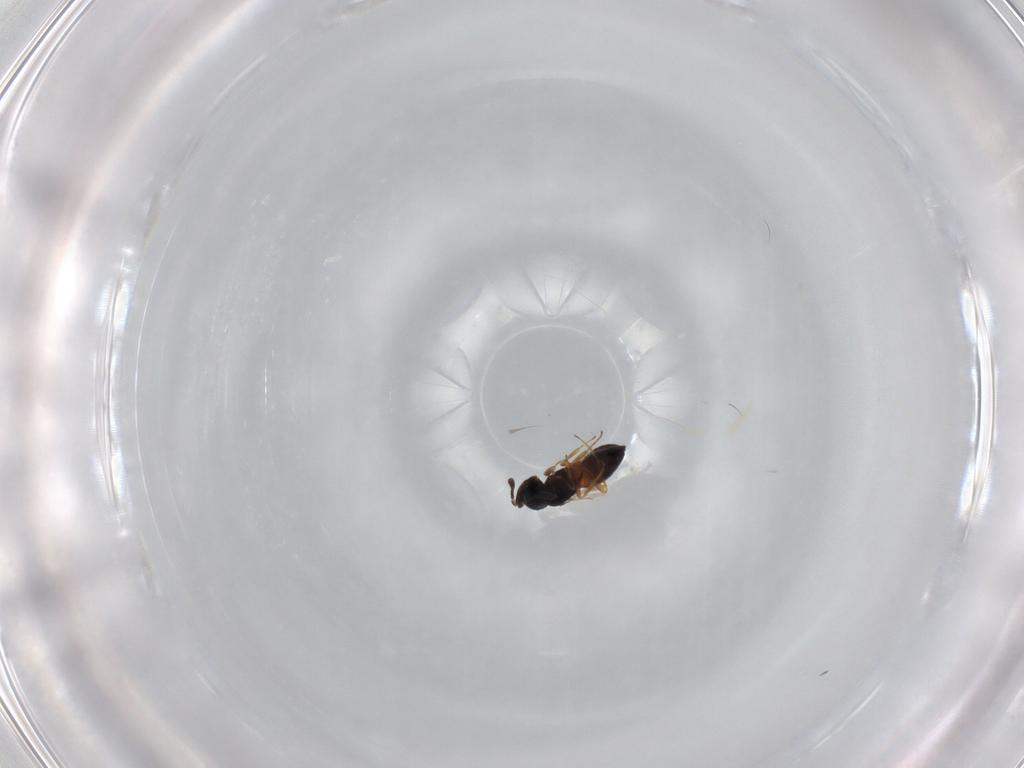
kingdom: Animalia
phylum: Arthropoda
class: Insecta
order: Hymenoptera
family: Scelionidae
